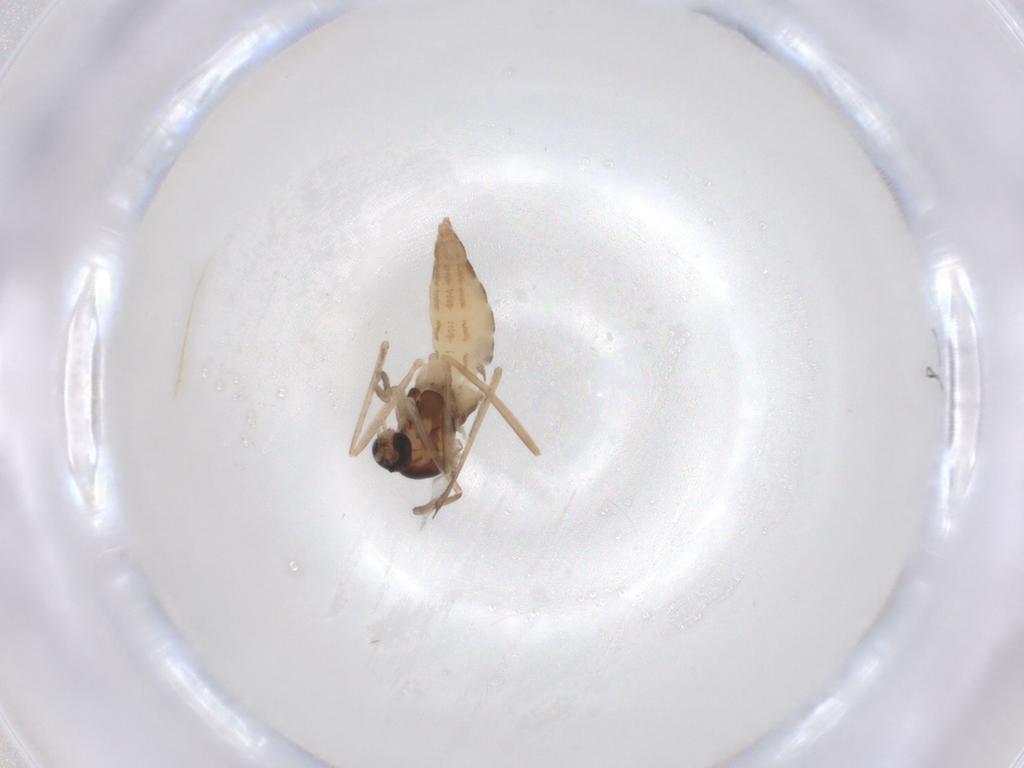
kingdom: Animalia
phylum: Arthropoda
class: Insecta
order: Diptera
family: Cecidomyiidae
